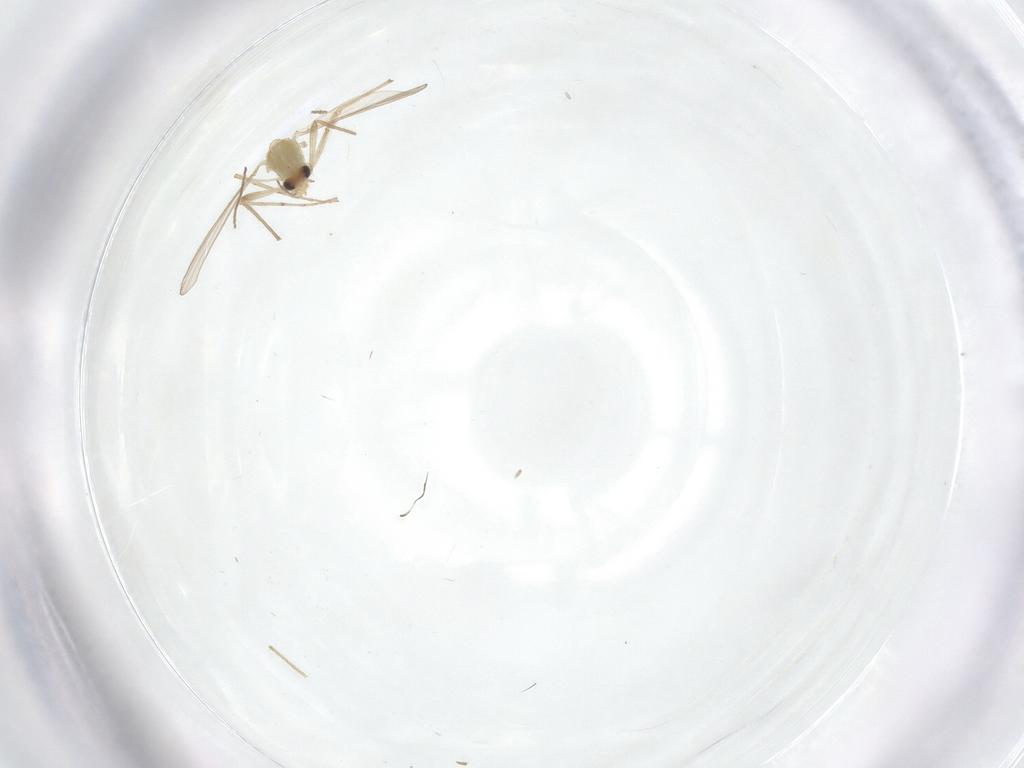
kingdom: Animalia
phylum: Arthropoda
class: Insecta
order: Diptera
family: Chironomidae
